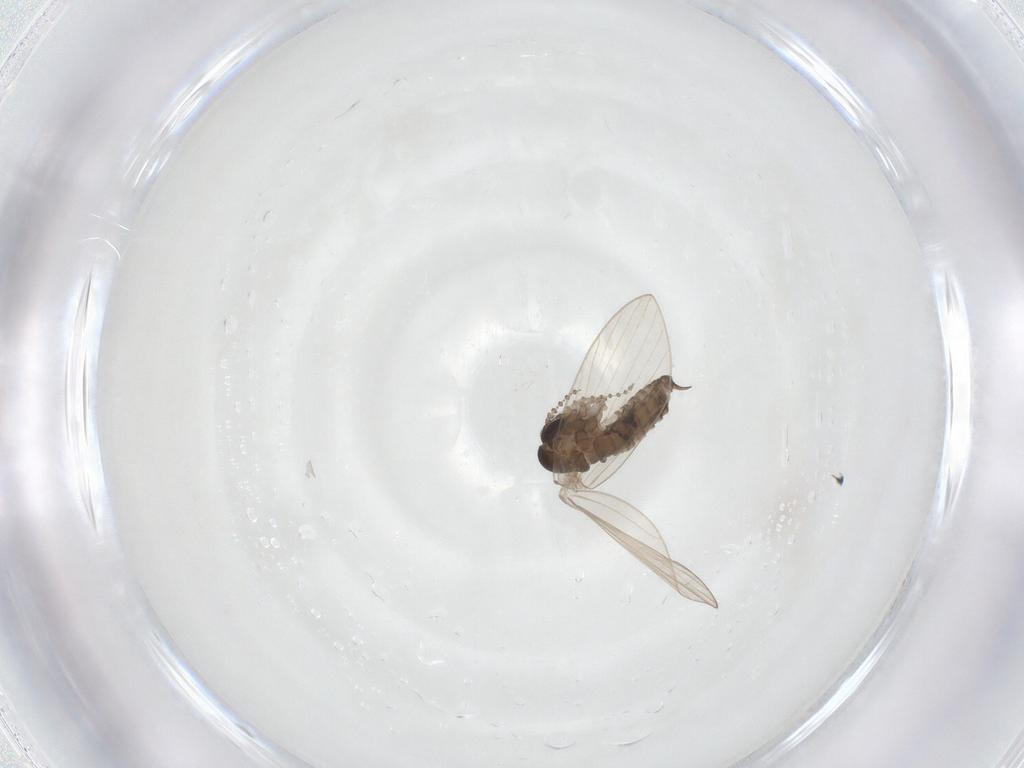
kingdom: Animalia
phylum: Arthropoda
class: Insecta
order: Diptera
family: Psychodidae
